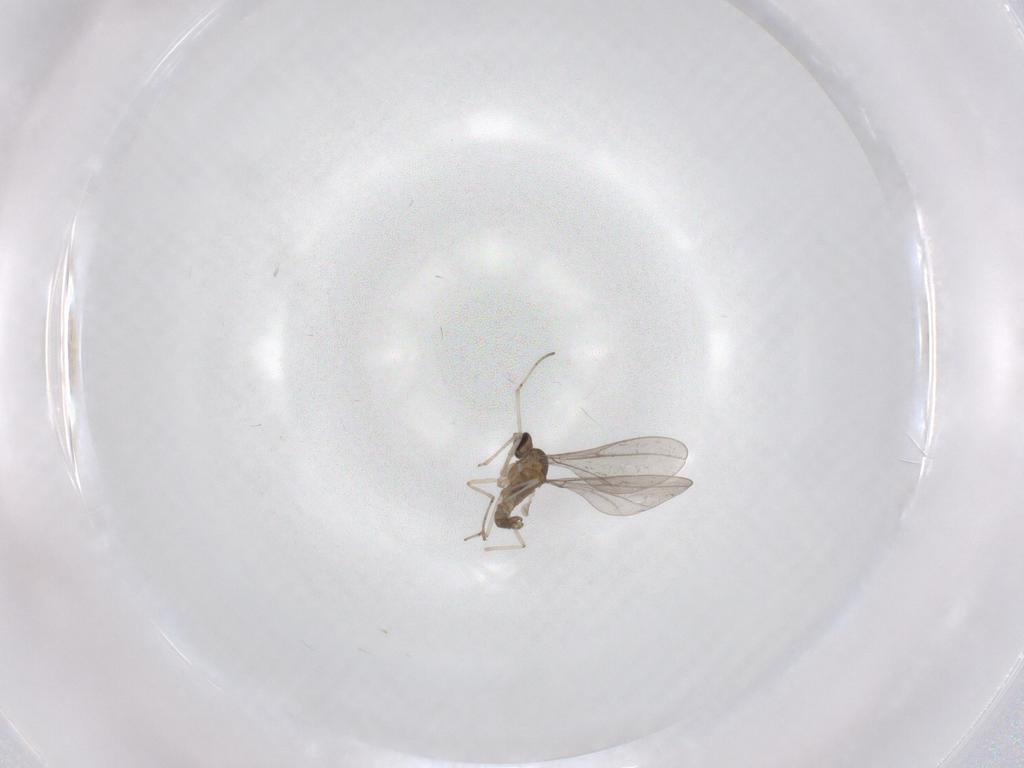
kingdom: Animalia
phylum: Arthropoda
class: Insecta
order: Diptera
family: Cecidomyiidae
